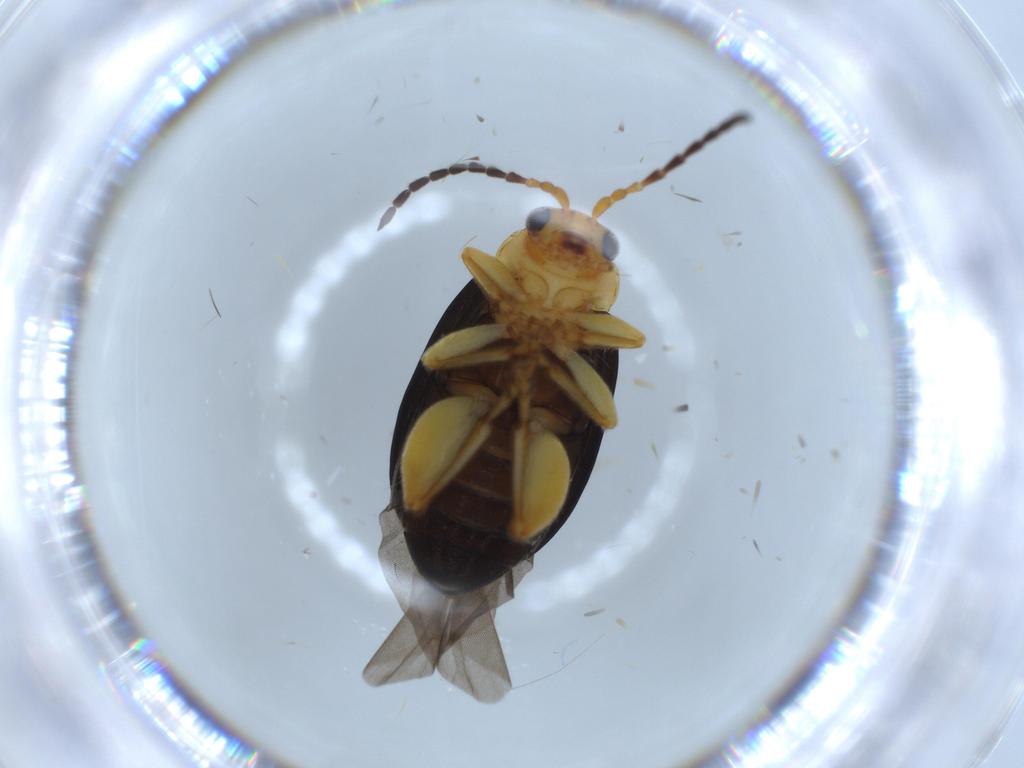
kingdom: Animalia
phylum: Arthropoda
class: Insecta
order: Coleoptera
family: Chrysomelidae
